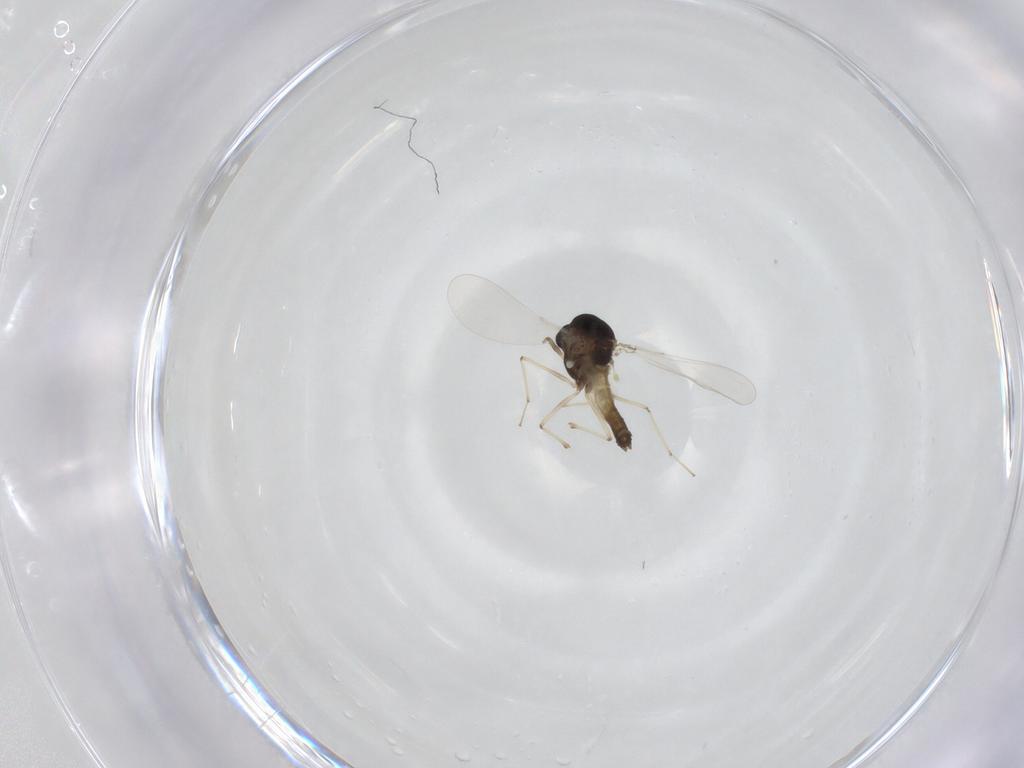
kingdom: Animalia
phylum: Arthropoda
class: Insecta
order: Diptera
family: Chironomidae
